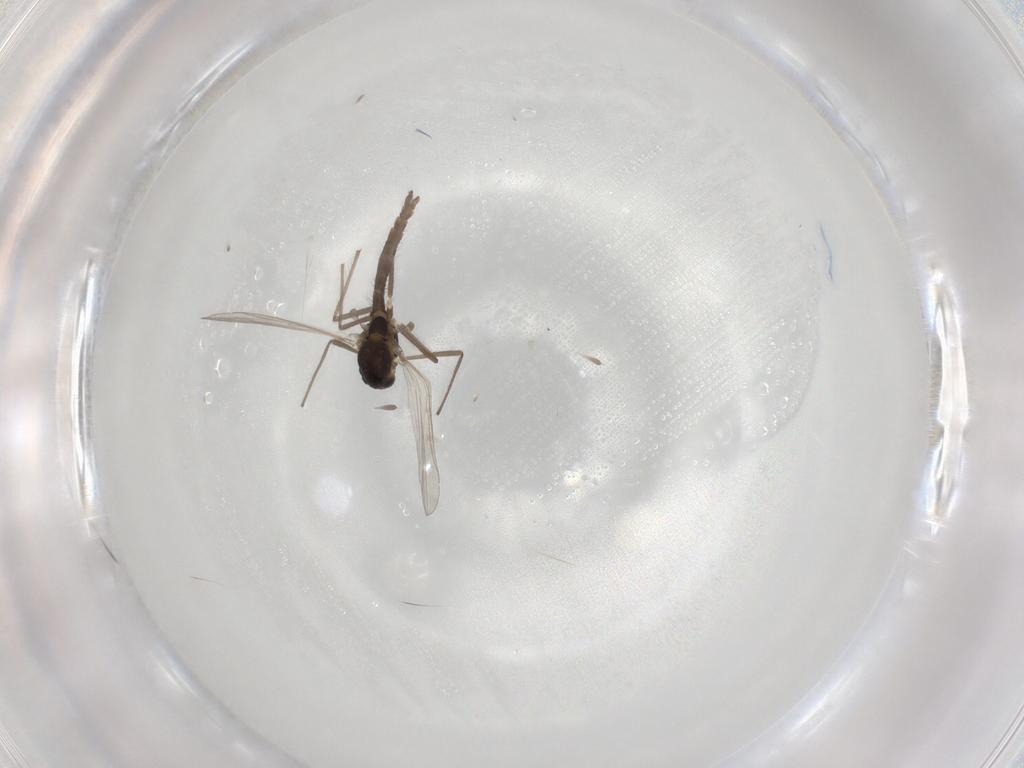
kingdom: Animalia
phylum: Arthropoda
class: Insecta
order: Diptera
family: Chironomidae
